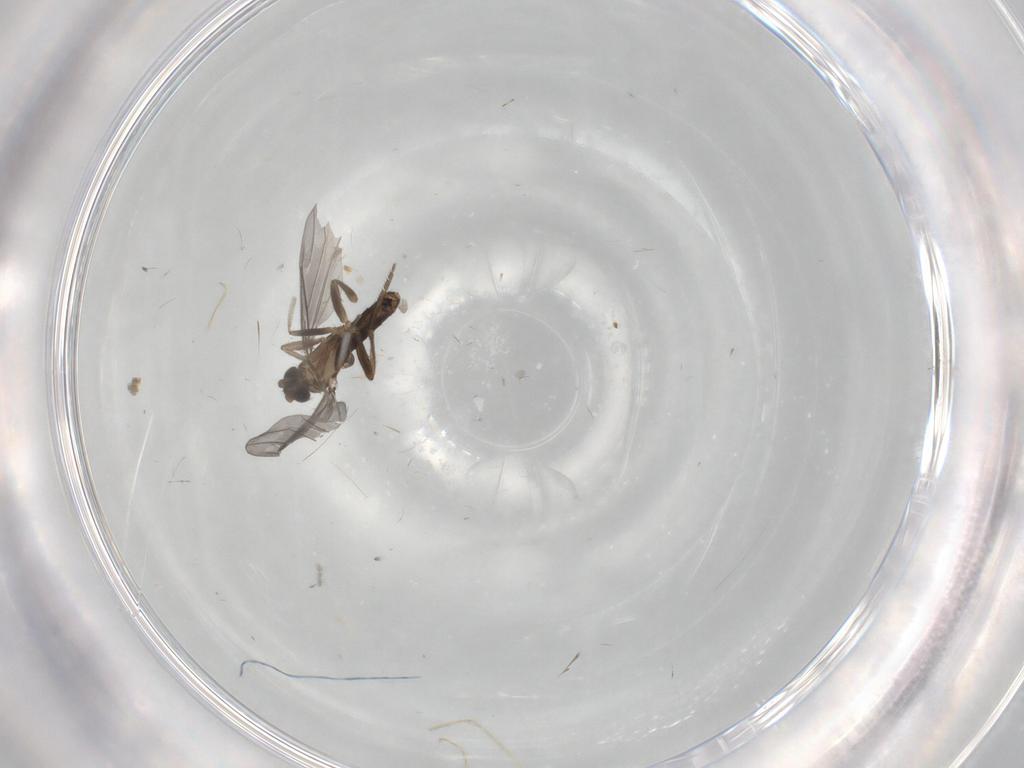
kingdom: Animalia
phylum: Arthropoda
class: Insecta
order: Diptera
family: Phoridae
